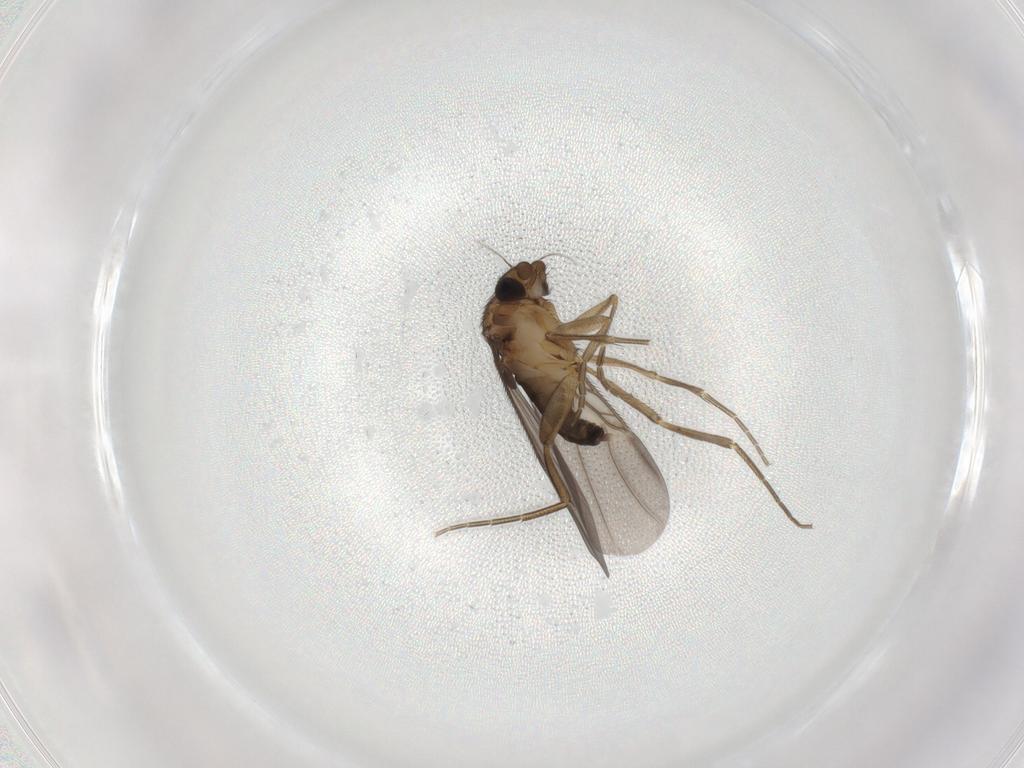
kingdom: Animalia
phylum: Arthropoda
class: Insecta
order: Diptera
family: Phoridae
